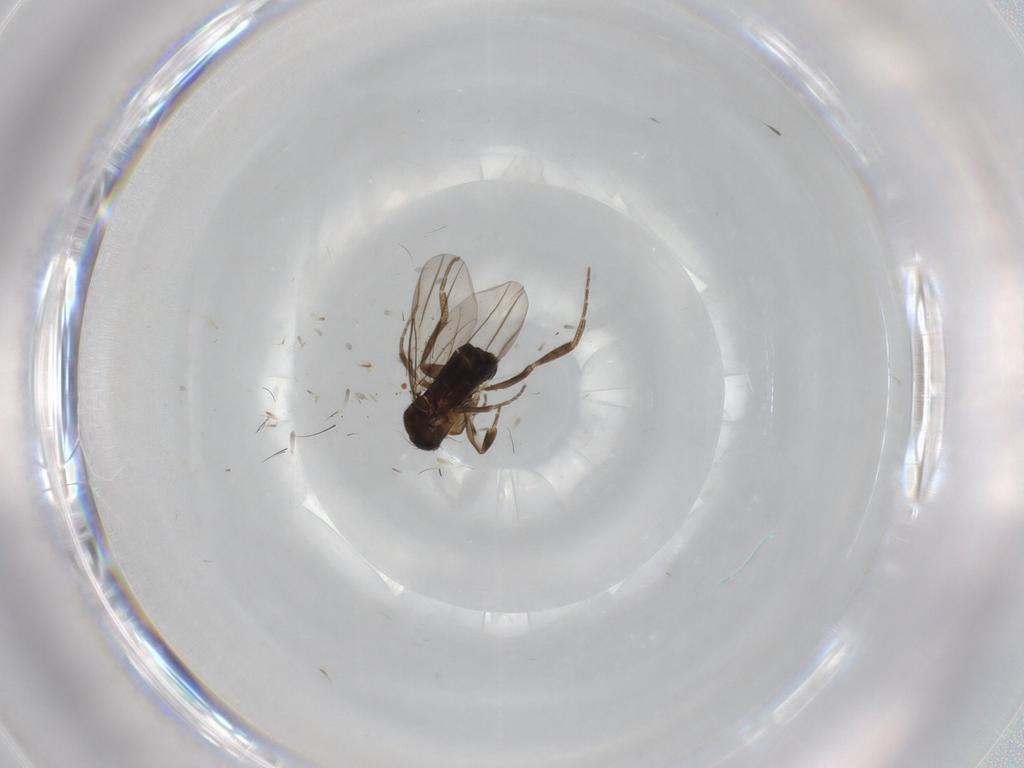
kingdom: Animalia
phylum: Arthropoda
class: Insecta
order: Diptera
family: Phoridae
